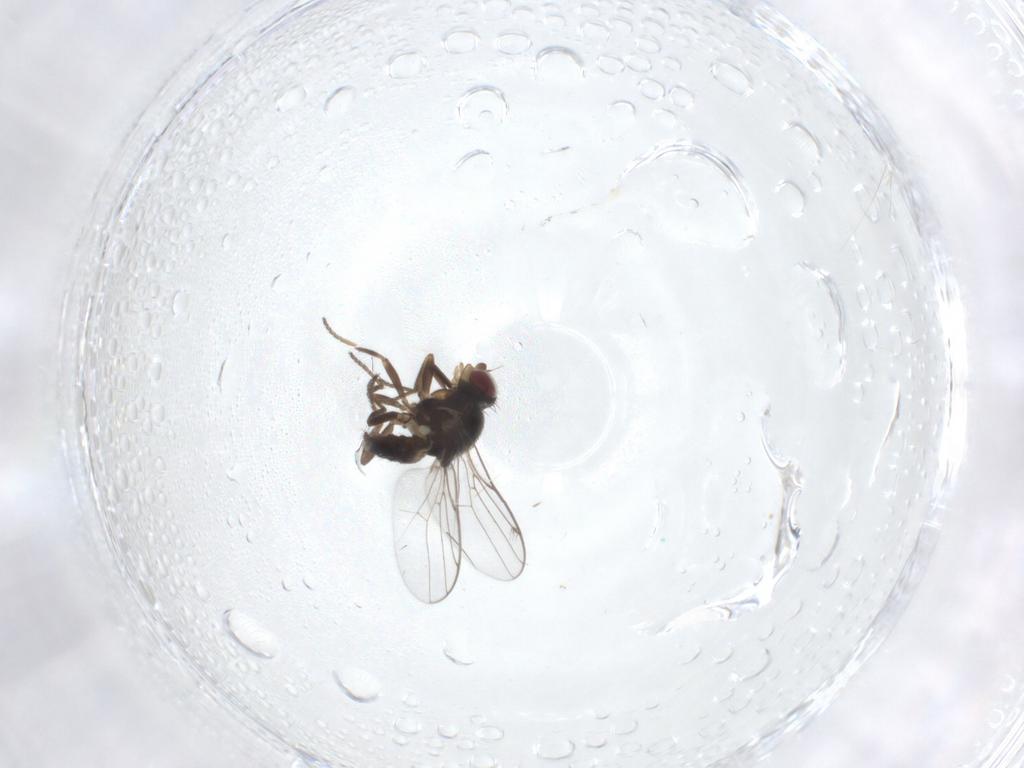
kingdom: Animalia
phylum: Arthropoda
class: Insecta
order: Diptera
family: Chloropidae
